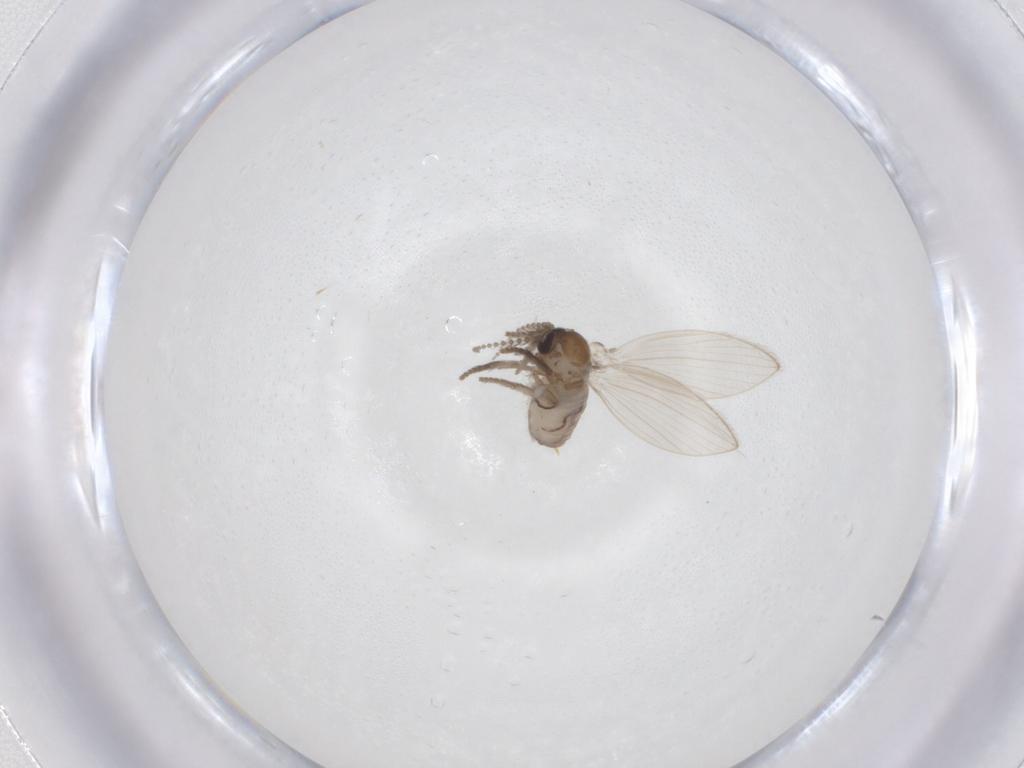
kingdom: Animalia
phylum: Arthropoda
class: Insecta
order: Diptera
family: Psychodidae
